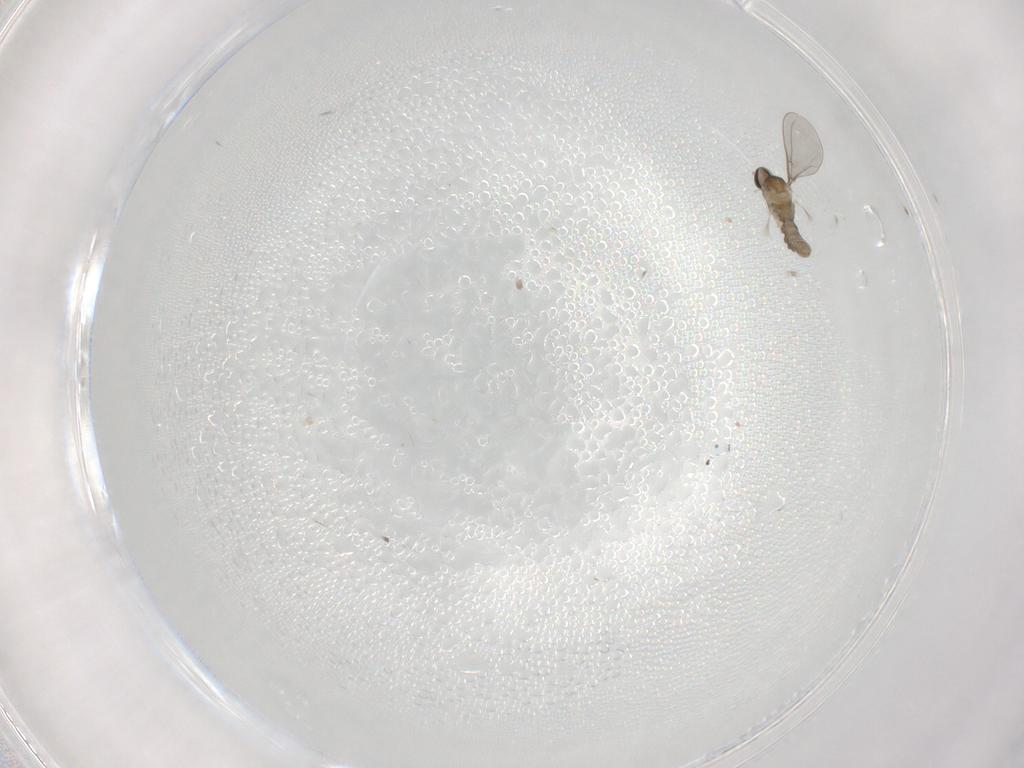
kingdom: Animalia
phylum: Arthropoda
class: Insecta
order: Diptera
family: Cecidomyiidae
